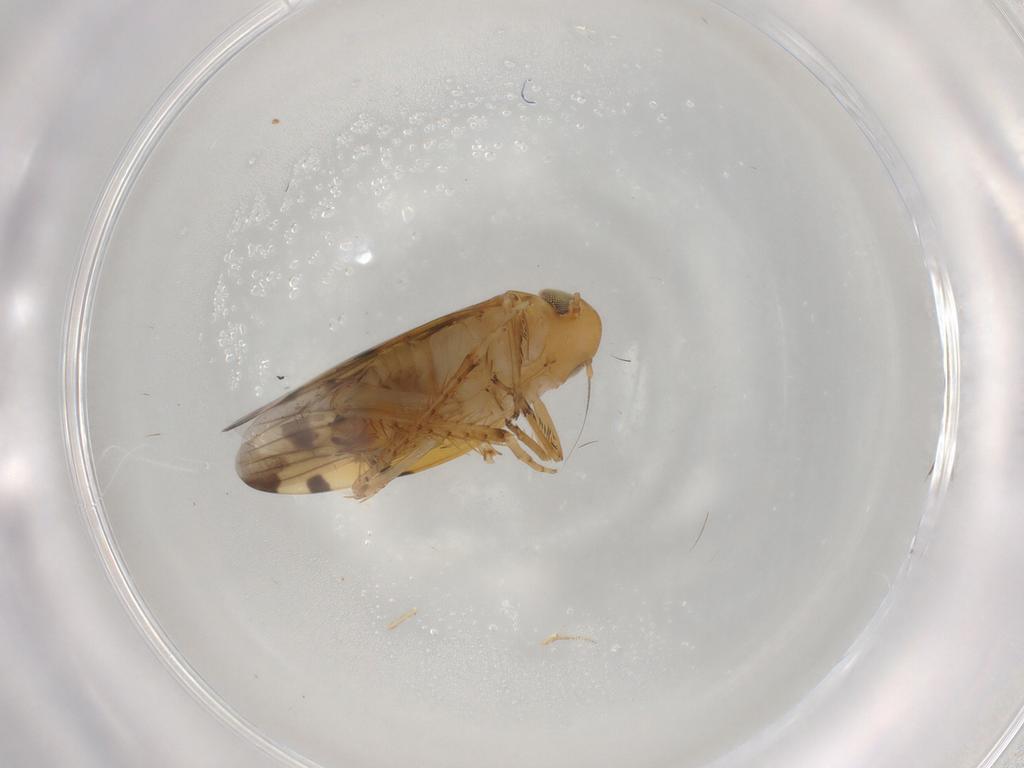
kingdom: Animalia
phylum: Arthropoda
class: Insecta
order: Hemiptera
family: Cicadellidae
